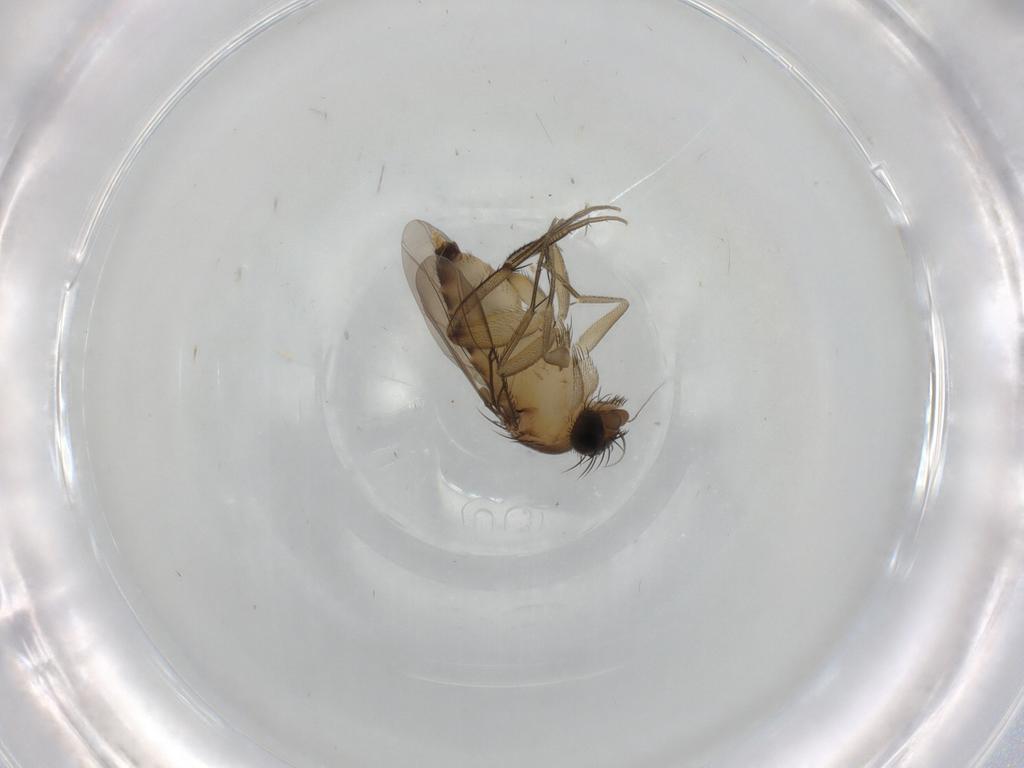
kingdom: Animalia
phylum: Arthropoda
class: Insecta
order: Diptera
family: Phoridae
